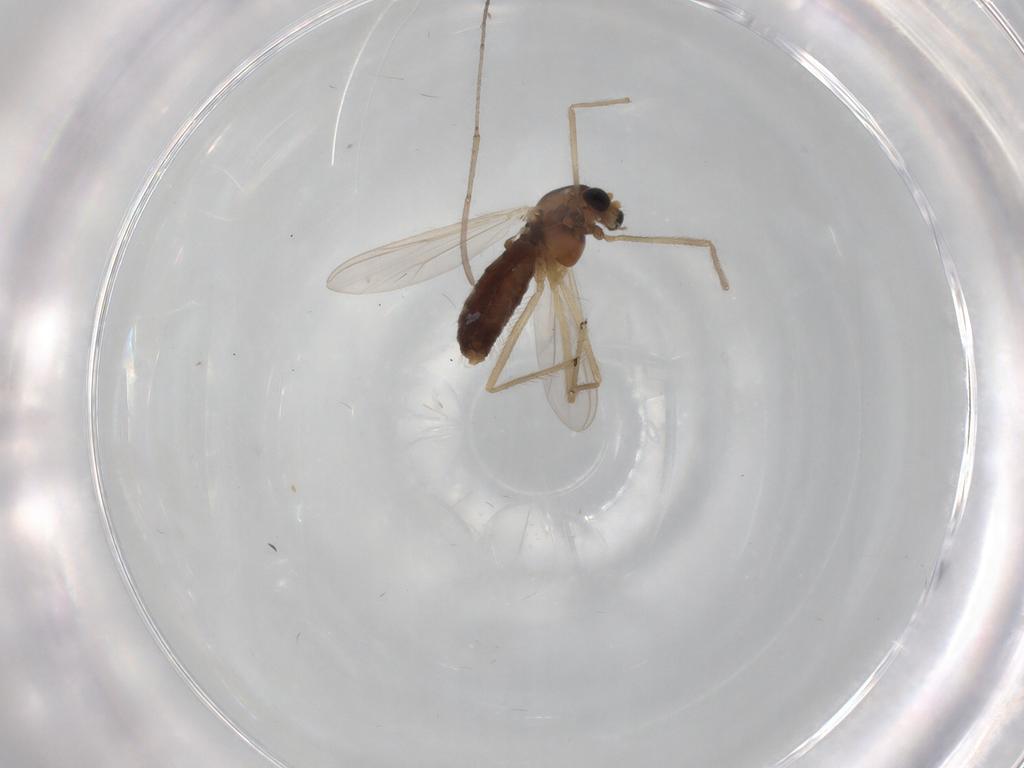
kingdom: Animalia
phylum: Arthropoda
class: Insecta
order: Diptera
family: Chironomidae
